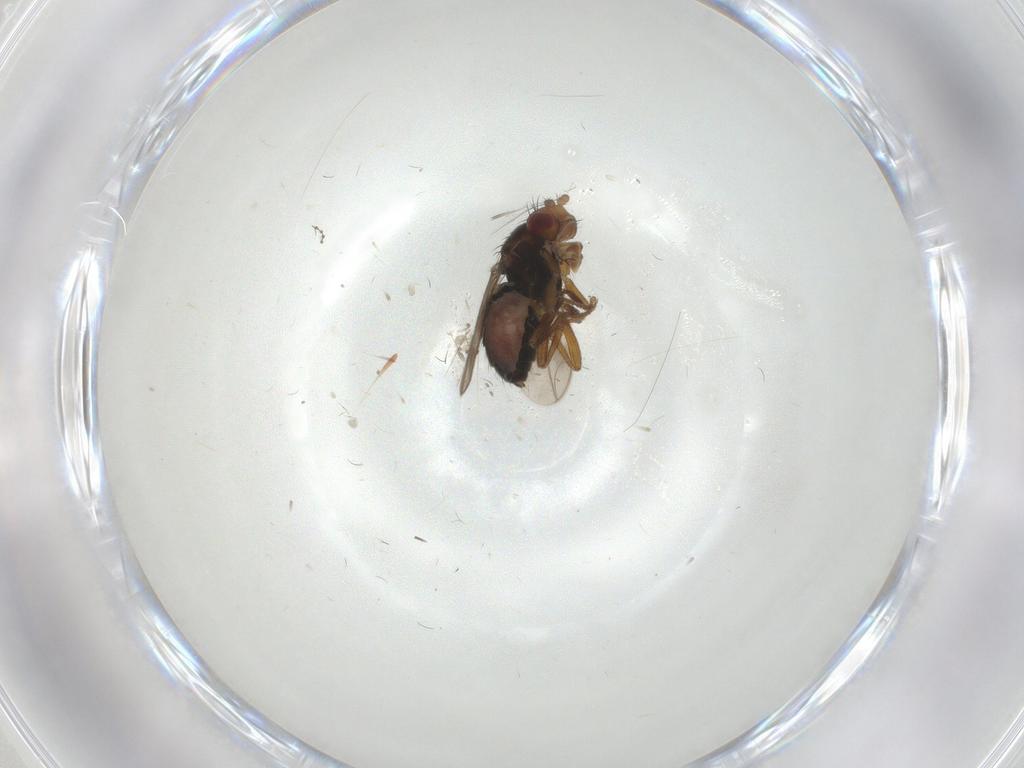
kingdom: Animalia
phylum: Arthropoda
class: Insecta
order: Diptera
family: Sphaeroceridae
